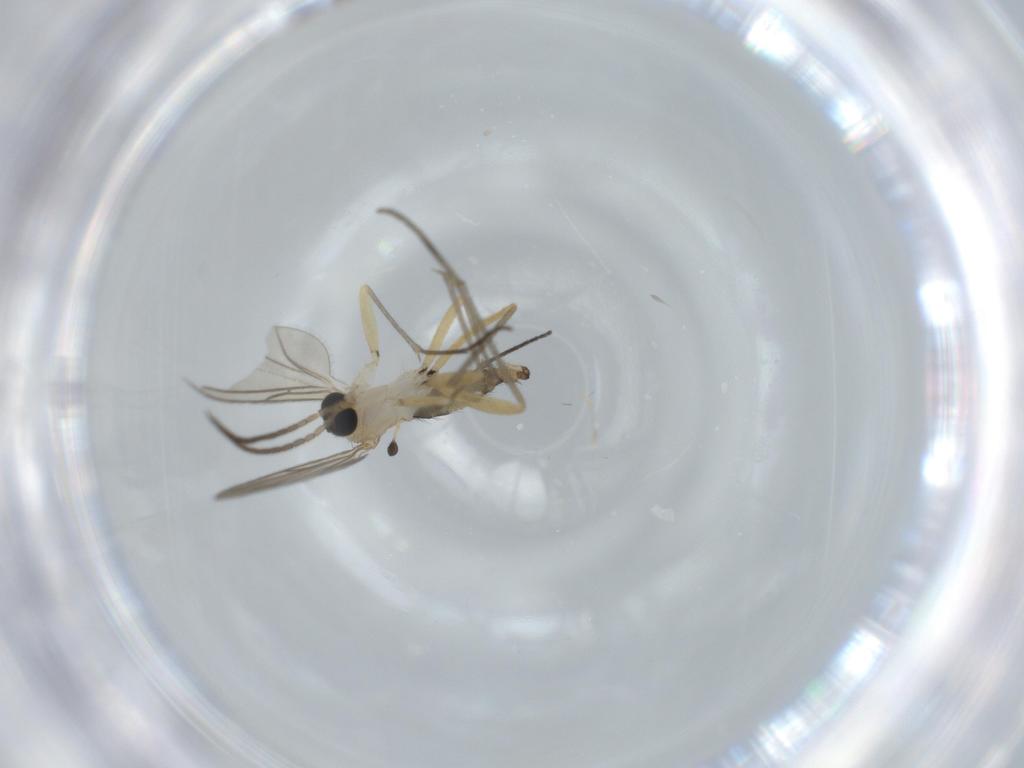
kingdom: Animalia
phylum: Arthropoda
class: Insecta
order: Diptera
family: Sciaridae
